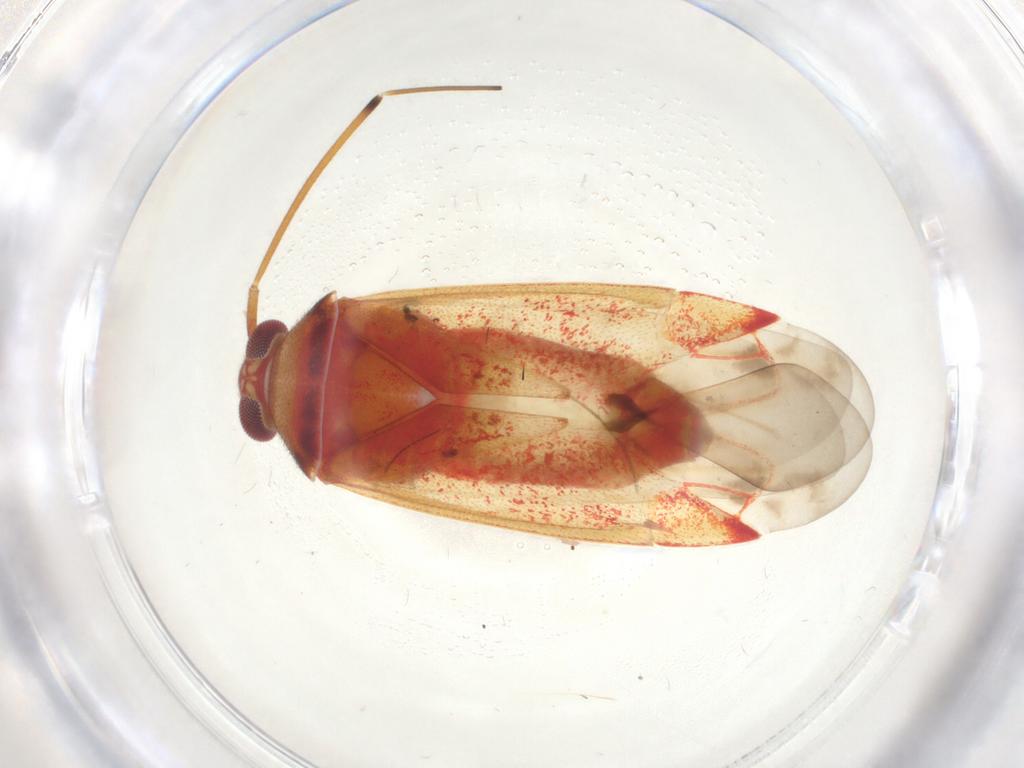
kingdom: Animalia
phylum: Arthropoda
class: Insecta
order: Hemiptera
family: Miridae
